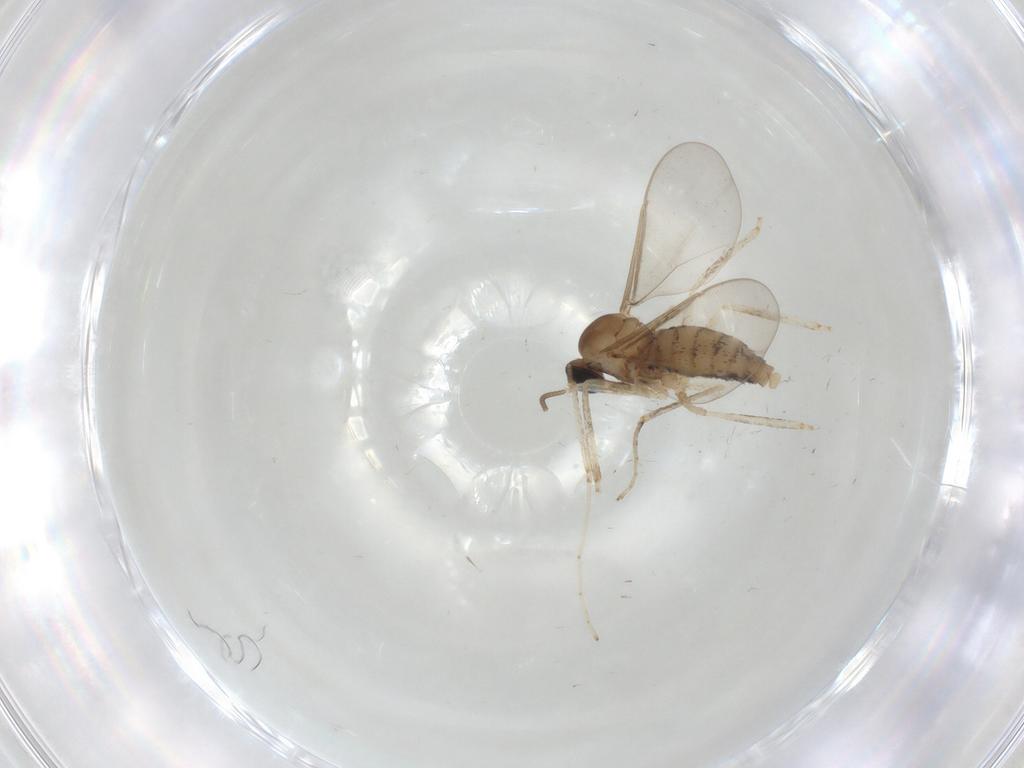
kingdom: Animalia
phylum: Arthropoda
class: Insecta
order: Diptera
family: Cecidomyiidae
